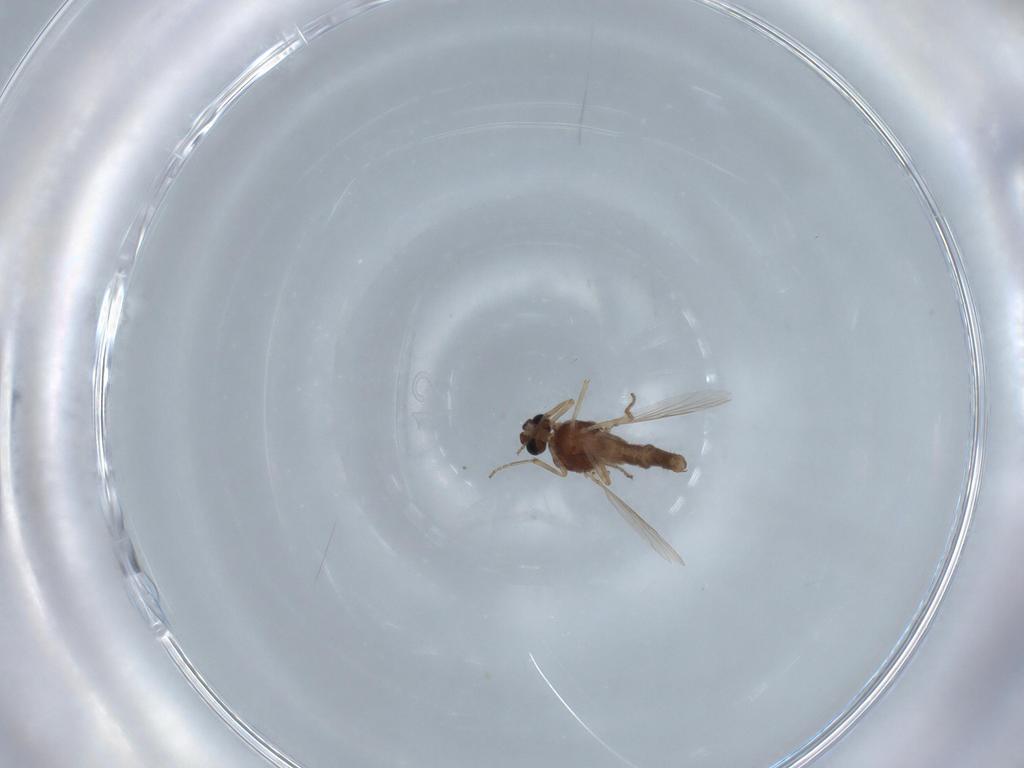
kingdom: Animalia
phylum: Arthropoda
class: Insecta
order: Diptera
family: Ceratopogonidae
